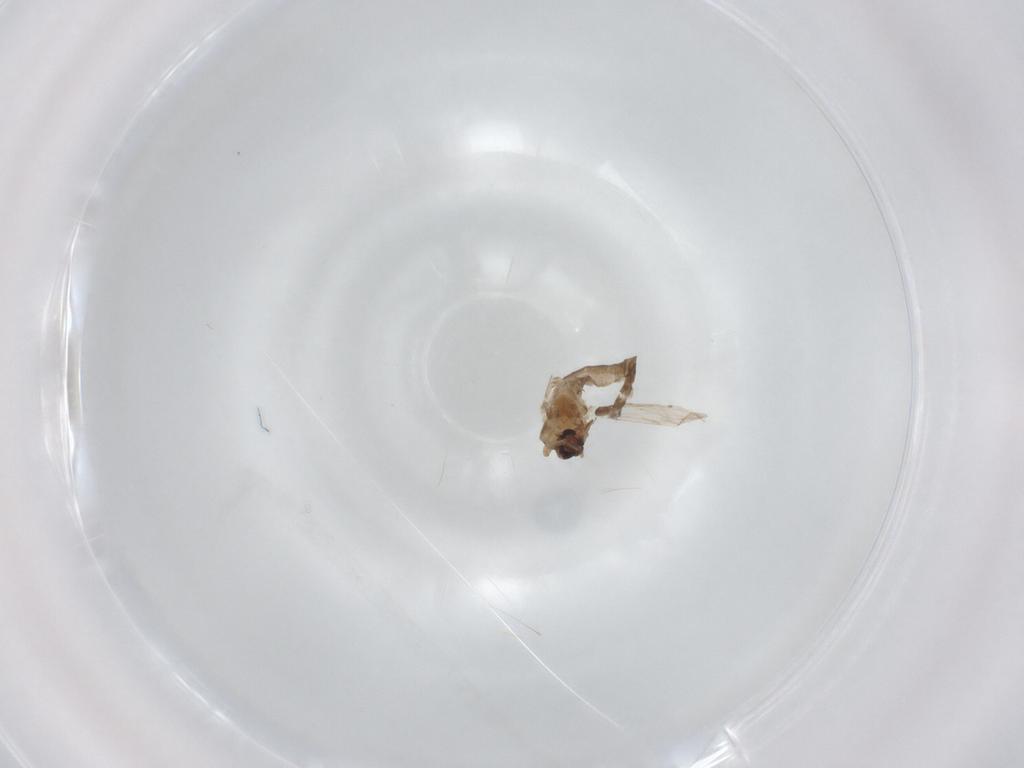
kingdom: Animalia
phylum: Arthropoda
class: Insecta
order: Diptera
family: Ceratopogonidae
